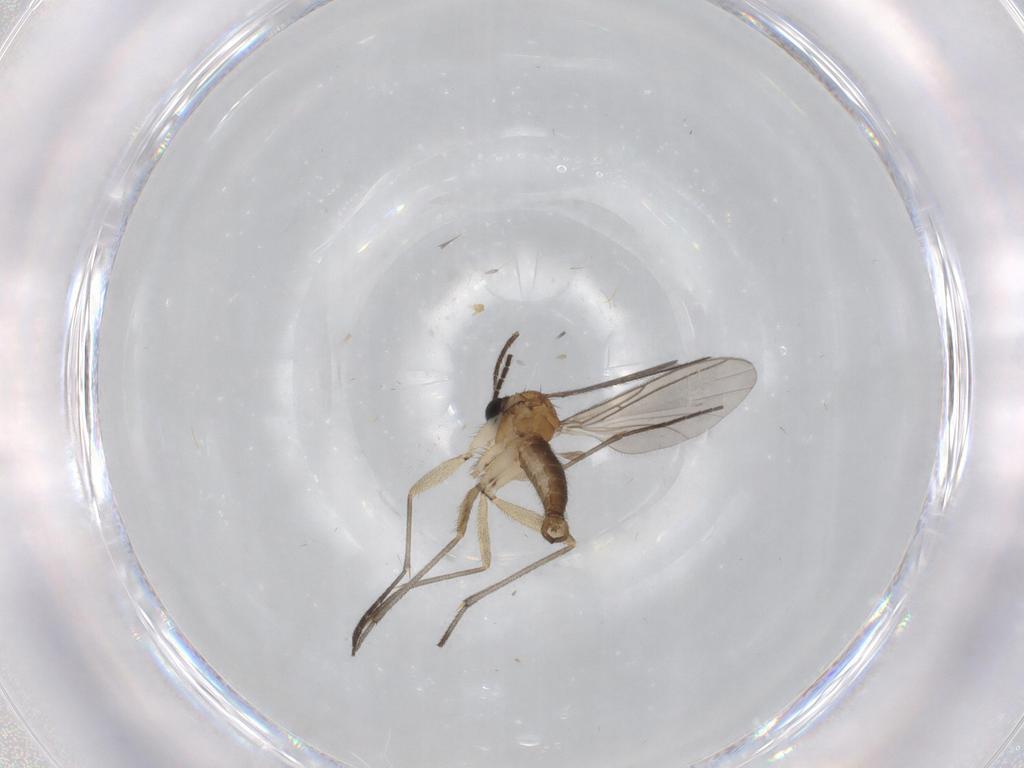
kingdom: Animalia
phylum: Arthropoda
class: Insecta
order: Diptera
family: Sciaridae
